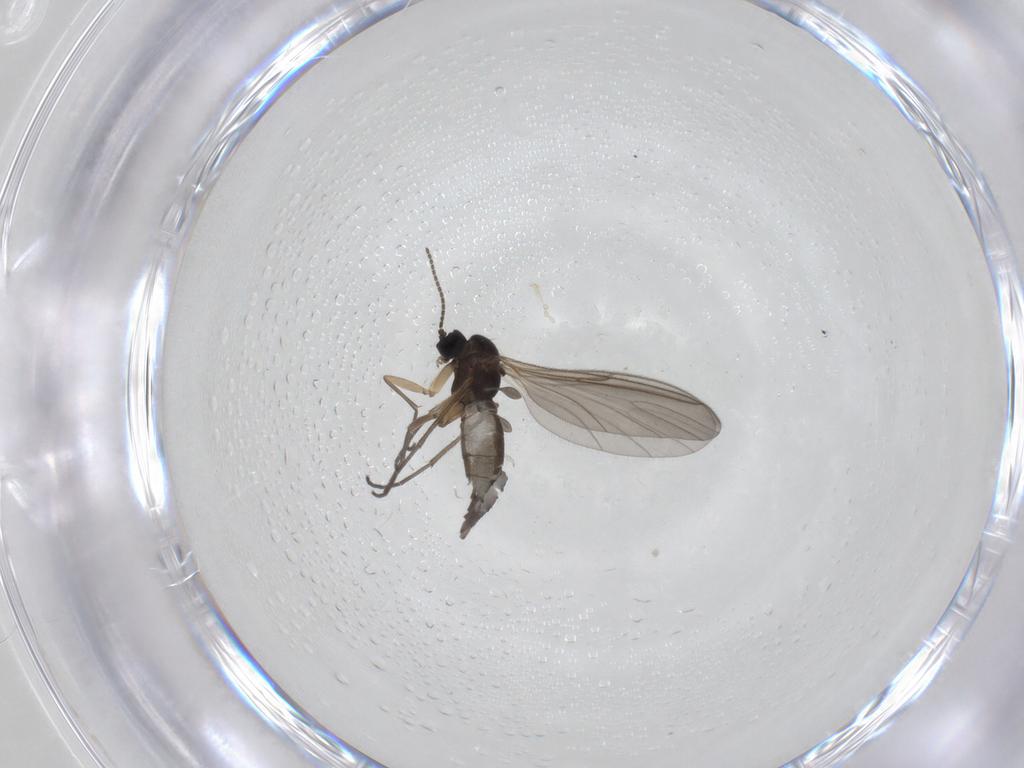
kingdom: Animalia
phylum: Arthropoda
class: Insecta
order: Diptera
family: Sciaridae
